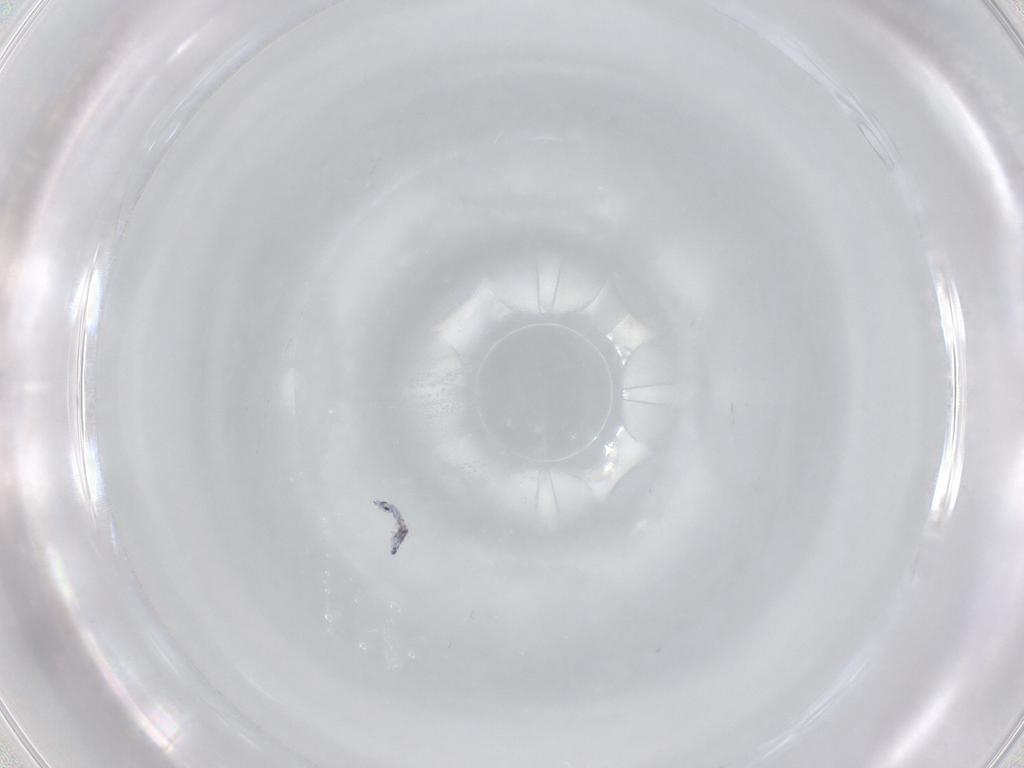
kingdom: Animalia
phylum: Arthropoda
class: Collembola
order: Entomobryomorpha
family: Entomobryidae
